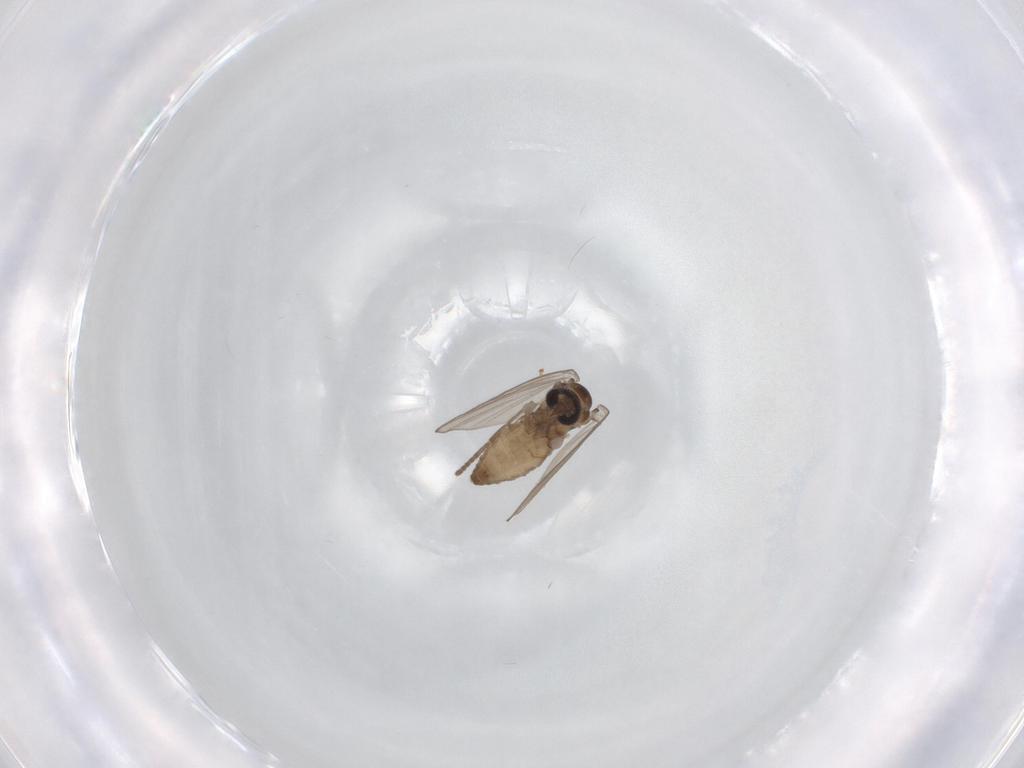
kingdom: Animalia
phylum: Arthropoda
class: Insecta
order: Diptera
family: Psychodidae
